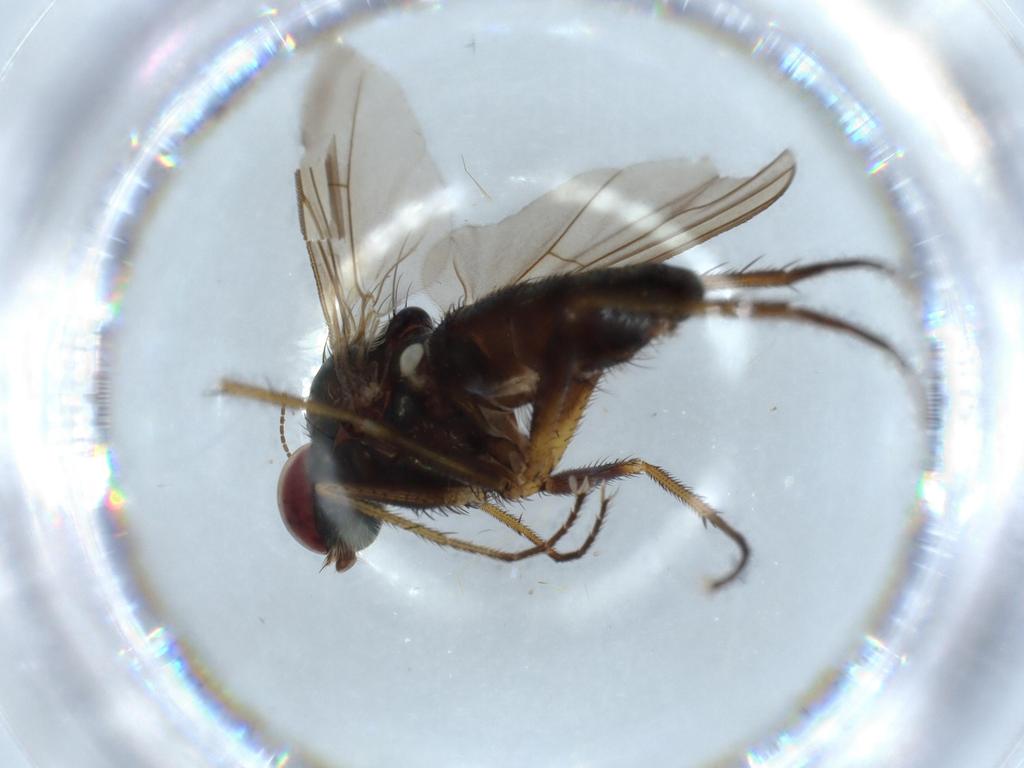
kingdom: Animalia
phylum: Arthropoda
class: Insecta
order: Diptera
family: Dolichopodidae
